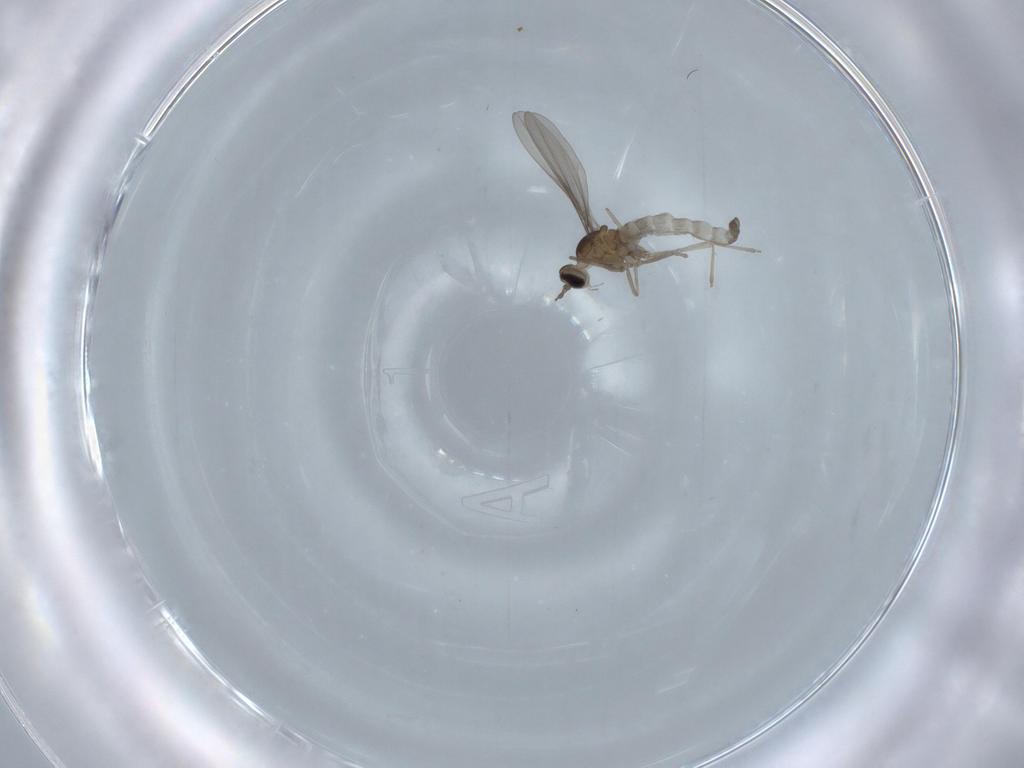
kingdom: Animalia
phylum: Arthropoda
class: Insecta
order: Diptera
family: Cecidomyiidae
